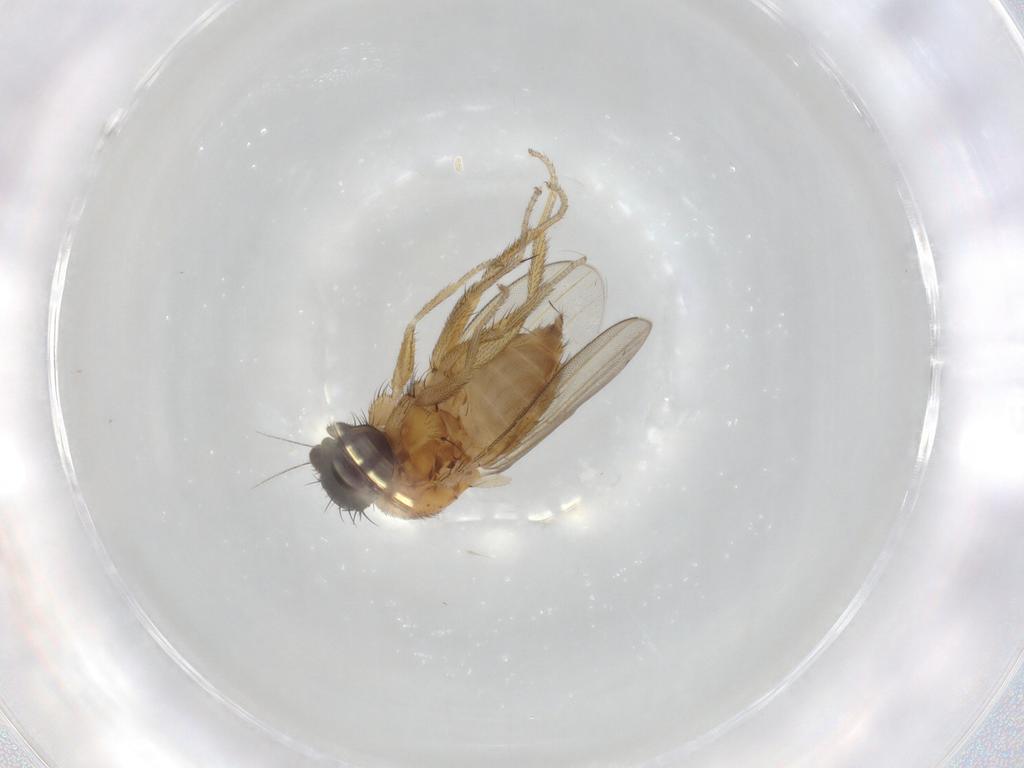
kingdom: Animalia
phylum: Arthropoda
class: Insecta
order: Diptera
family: Milichiidae
